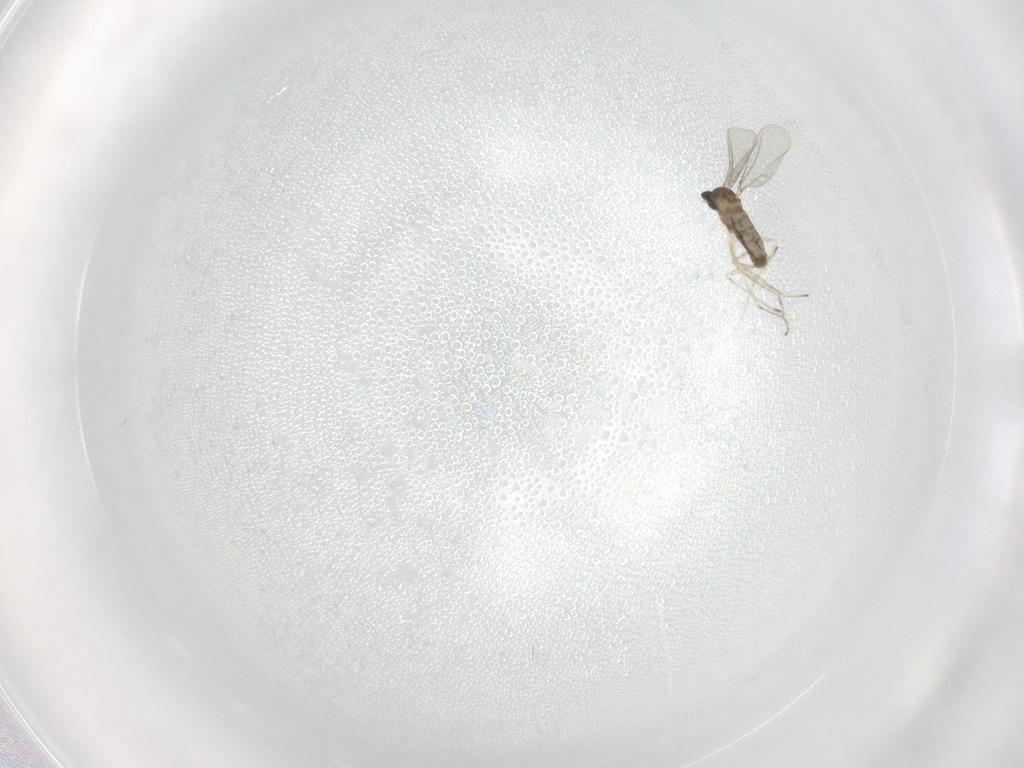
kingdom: Animalia
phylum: Arthropoda
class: Insecta
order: Diptera
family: Cecidomyiidae
